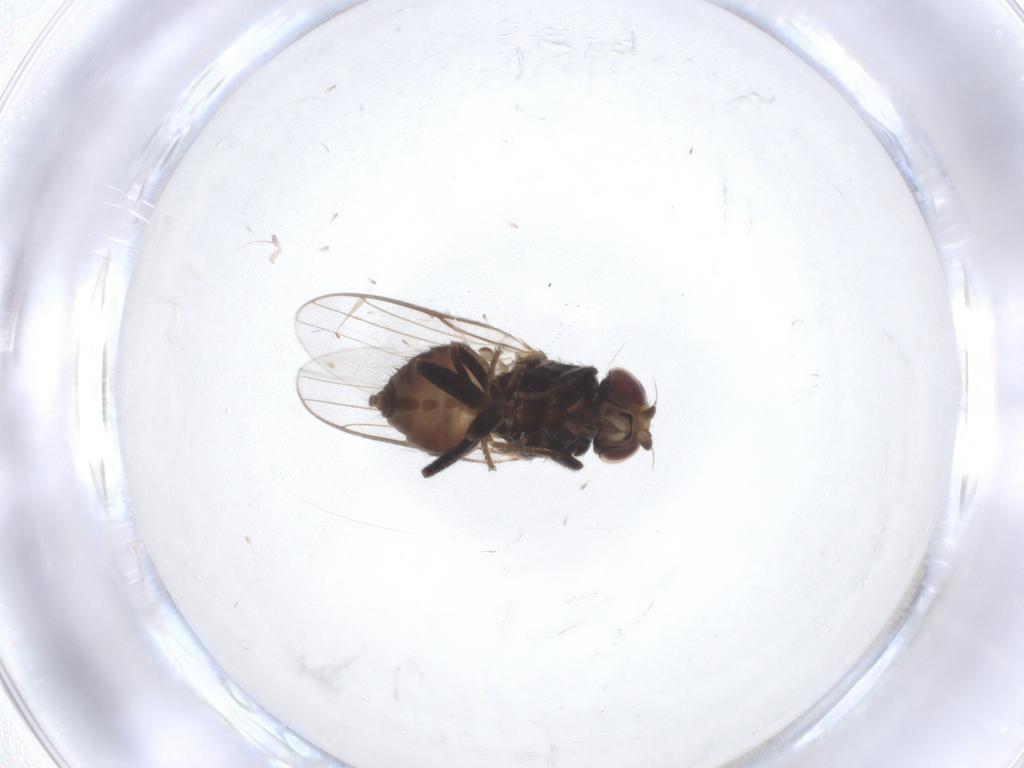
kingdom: Animalia
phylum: Arthropoda
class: Insecta
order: Diptera
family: Chloropidae
